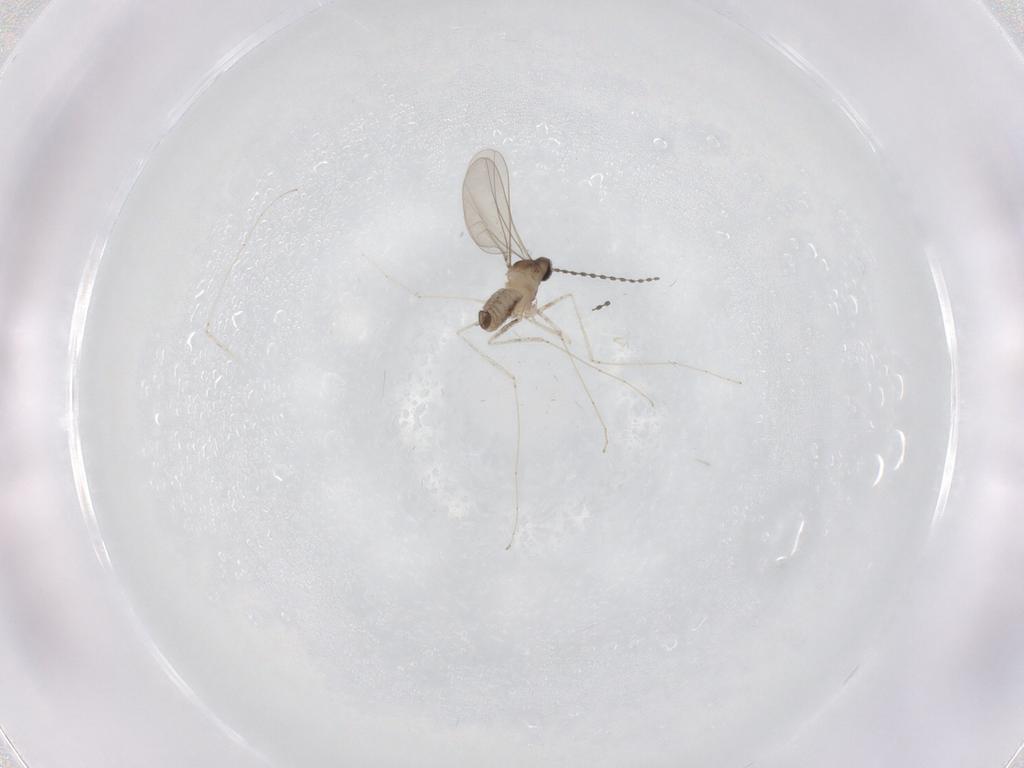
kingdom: Animalia
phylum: Arthropoda
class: Insecta
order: Diptera
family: Cecidomyiidae
